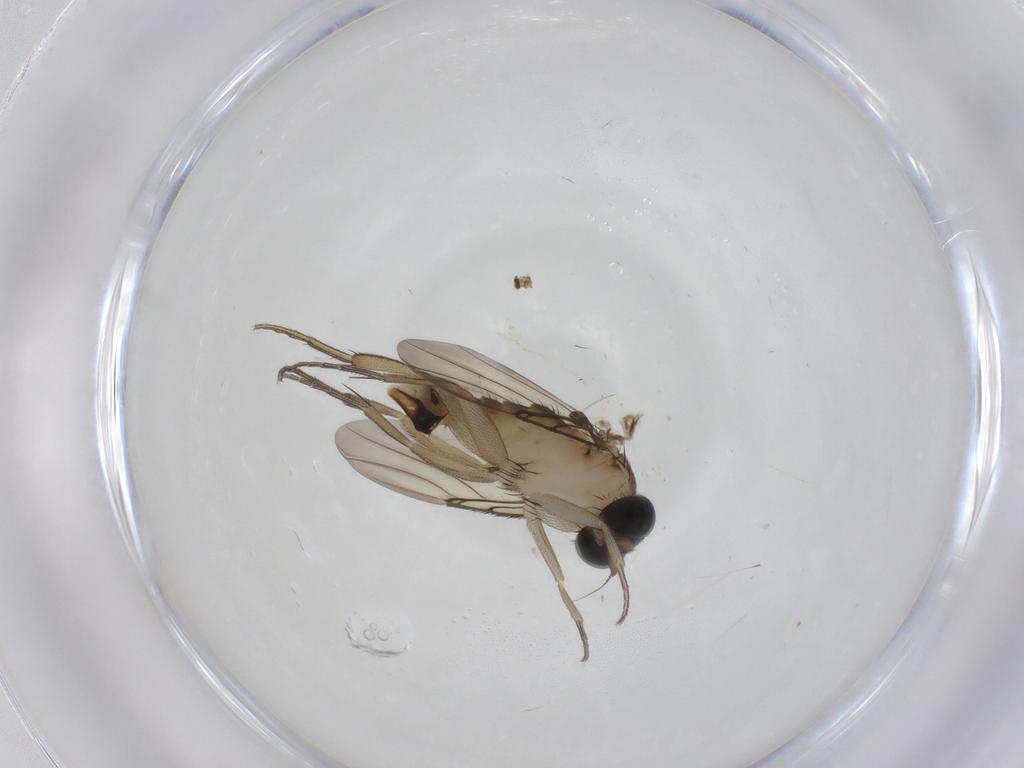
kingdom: Animalia
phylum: Arthropoda
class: Insecta
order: Diptera
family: Phoridae
